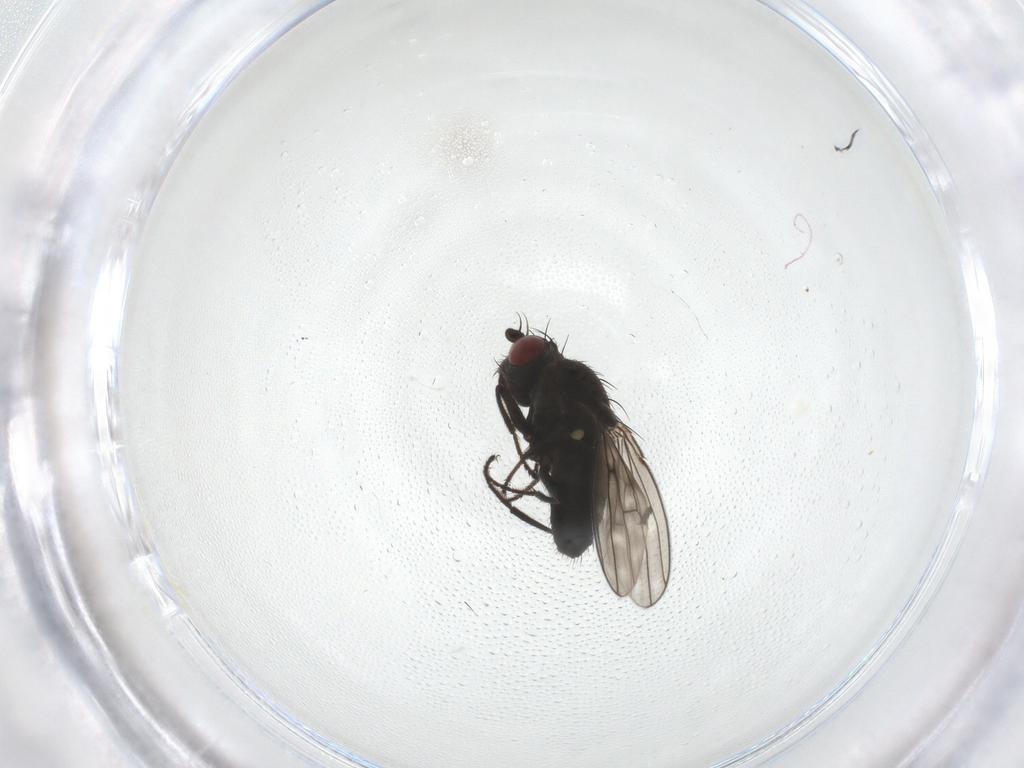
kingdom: Animalia
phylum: Arthropoda
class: Insecta
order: Diptera
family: Ephydridae
